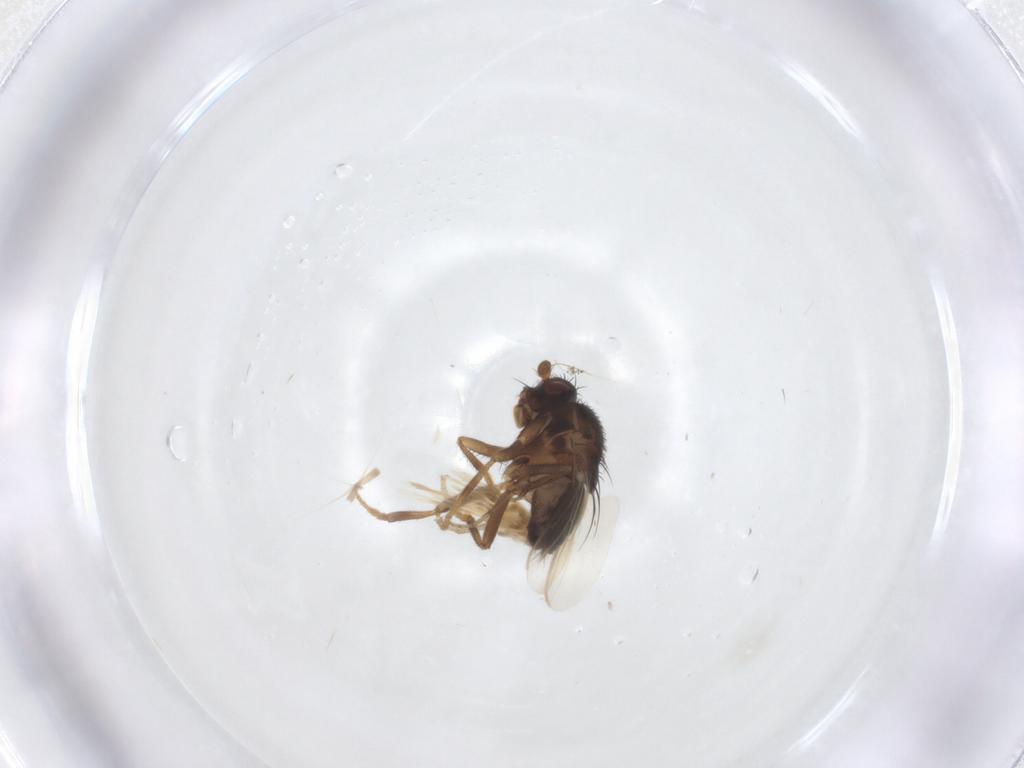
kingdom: Animalia
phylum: Arthropoda
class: Insecta
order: Diptera
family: Sphaeroceridae
